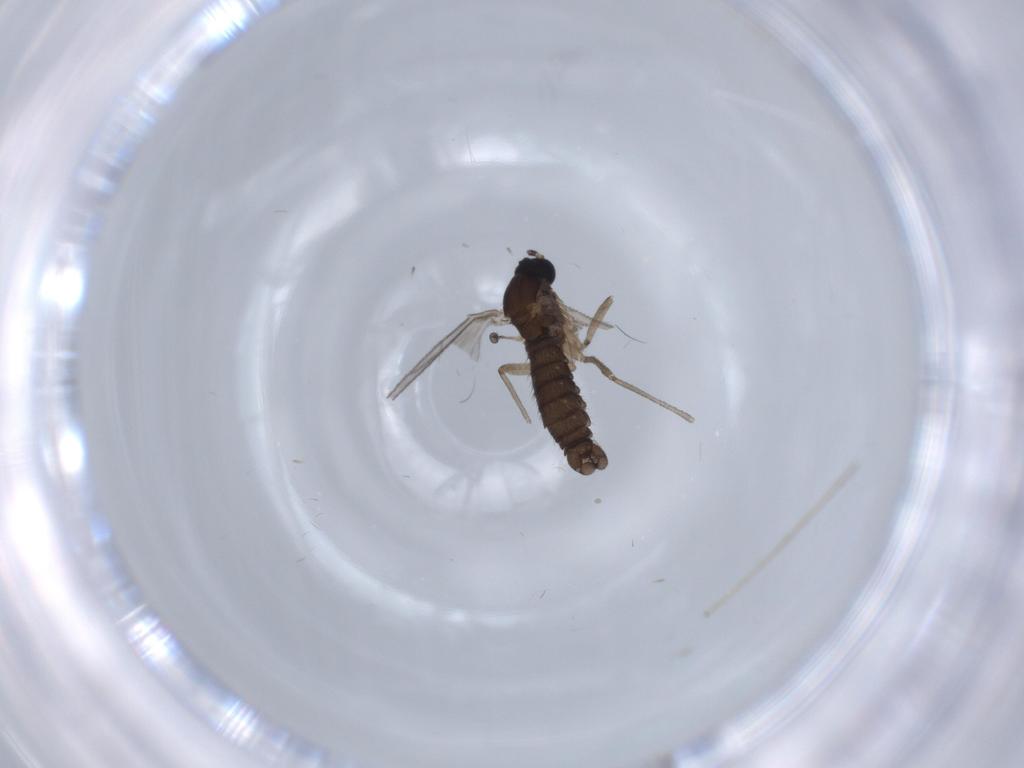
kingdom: Animalia
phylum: Arthropoda
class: Insecta
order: Diptera
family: Sciaridae
